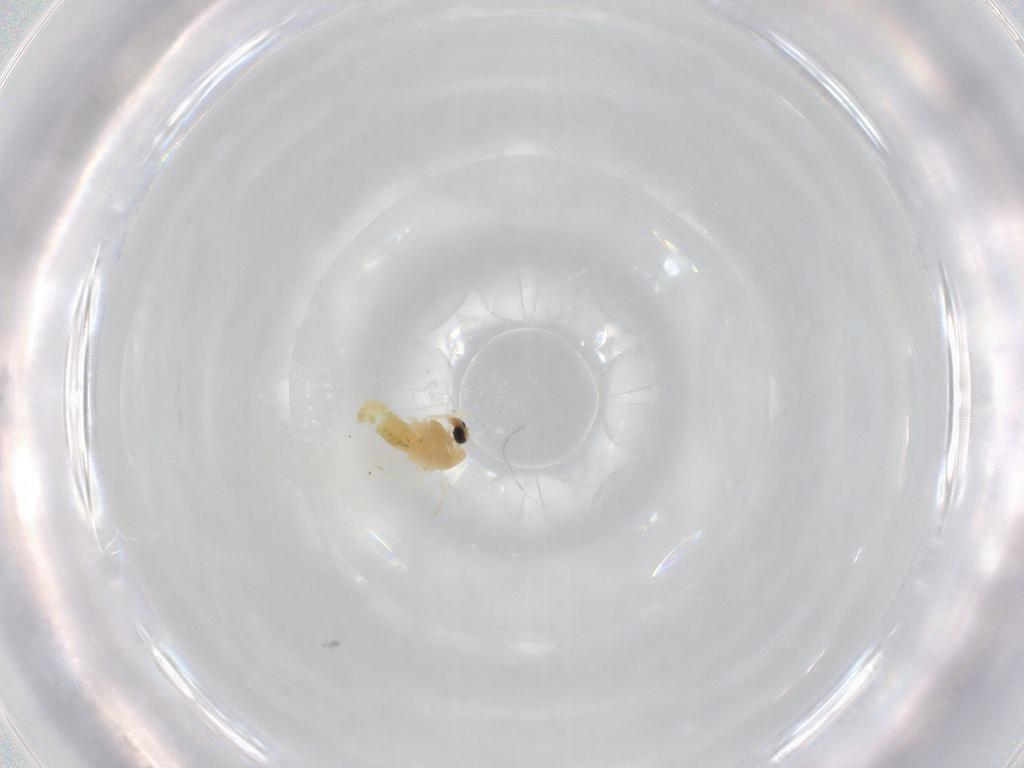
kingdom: Animalia
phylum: Arthropoda
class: Insecta
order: Diptera
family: Chironomidae
